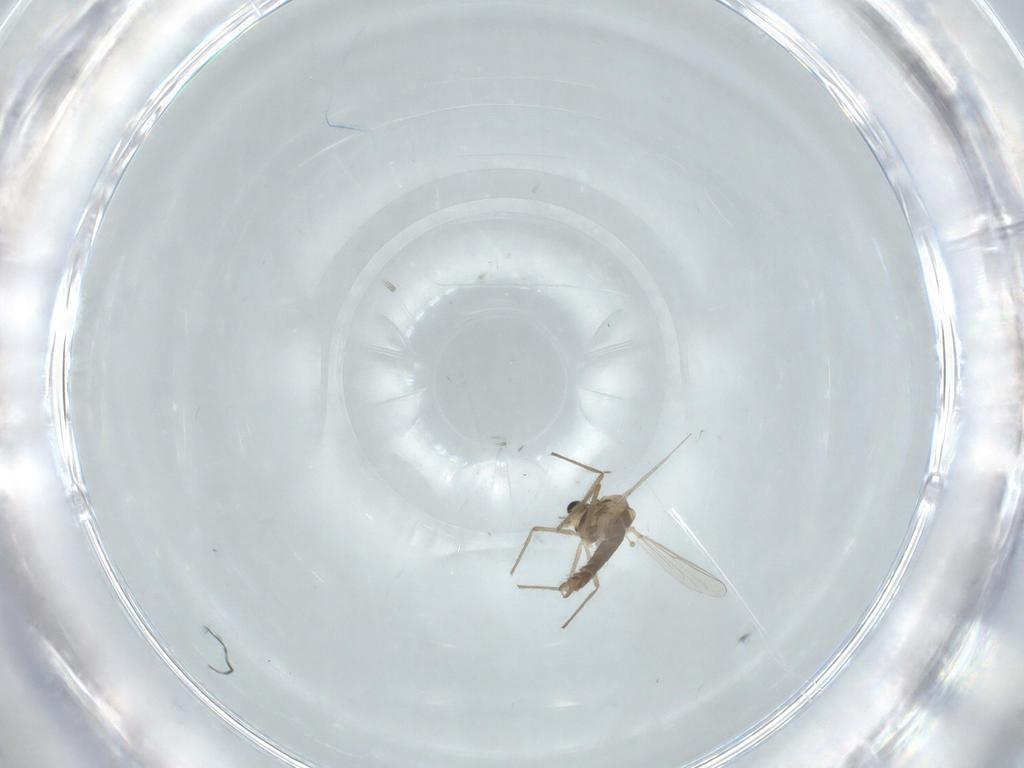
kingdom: Animalia
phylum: Arthropoda
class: Insecta
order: Diptera
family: Chironomidae
